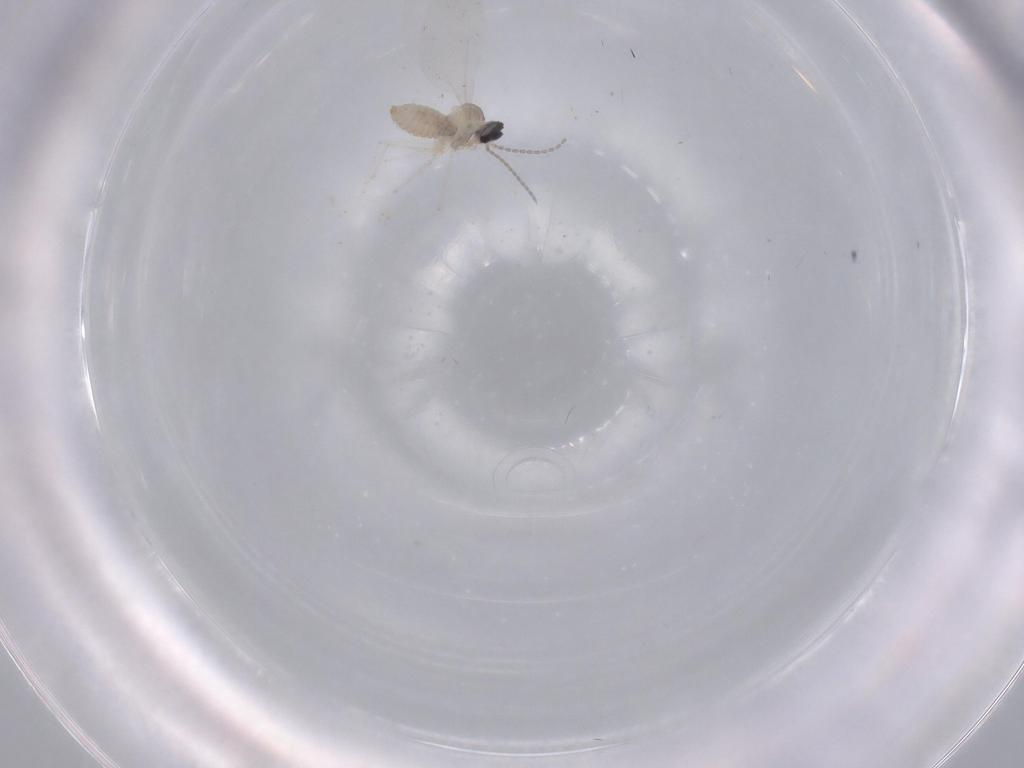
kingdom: Animalia
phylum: Arthropoda
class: Insecta
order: Diptera
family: Cecidomyiidae
